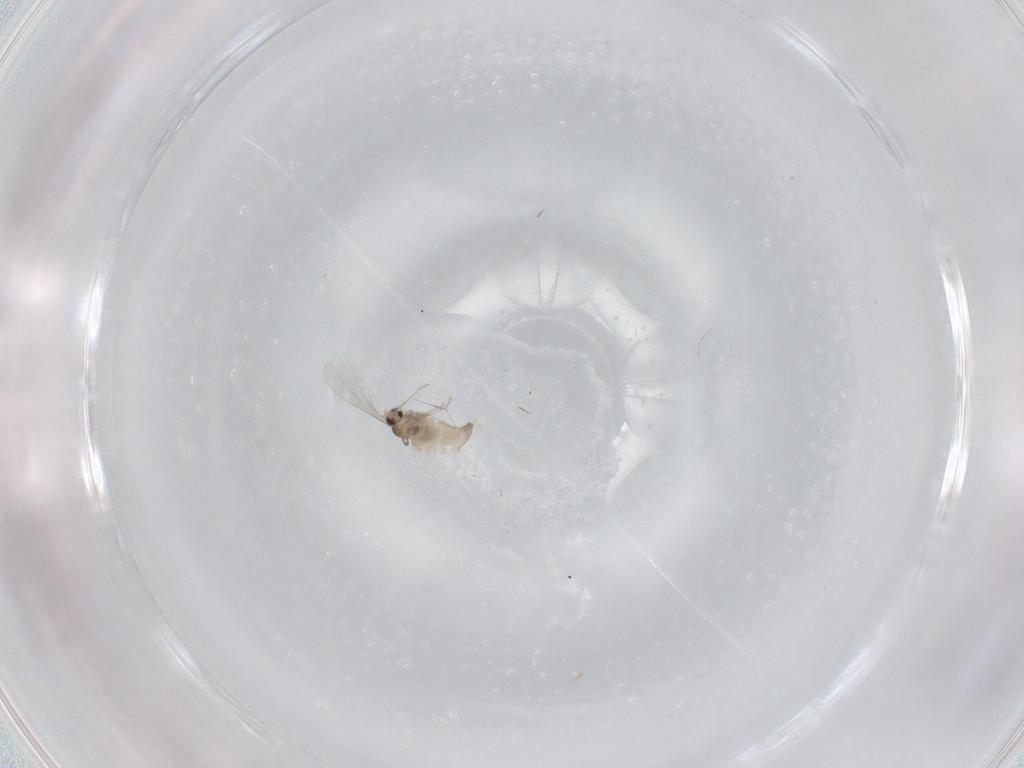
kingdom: Animalia
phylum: Arthropoda
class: Insecta
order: Diptera
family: Cecidomyiidae
